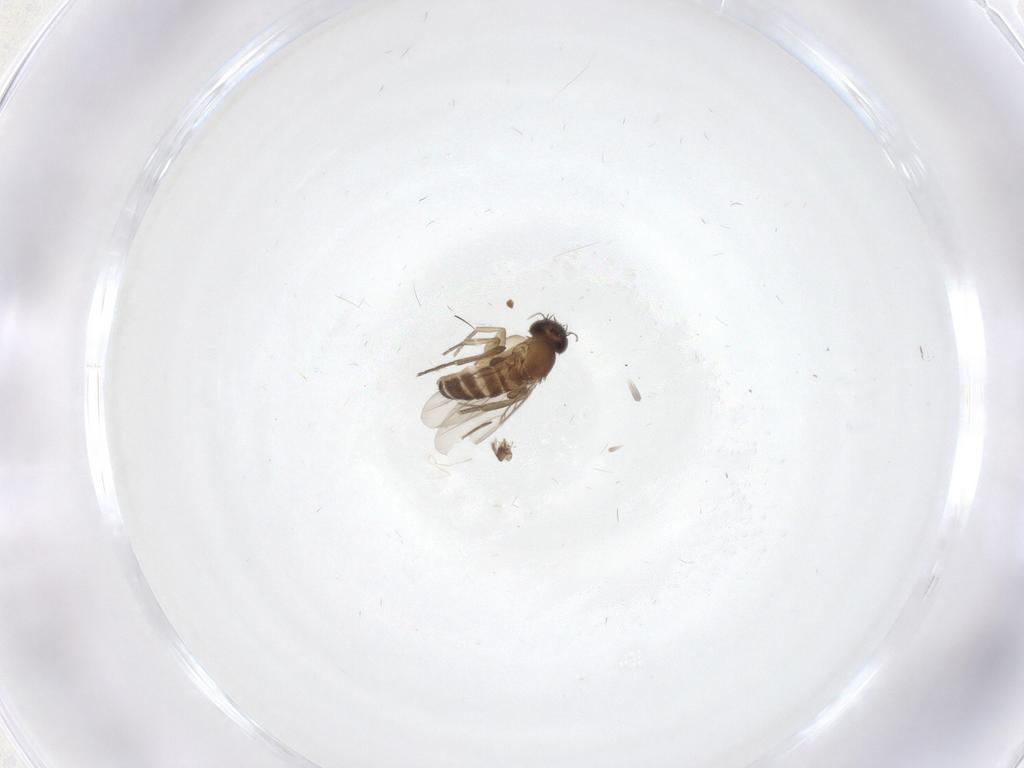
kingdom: Animalia
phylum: Arthropoda
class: Insecta
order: Diptera
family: Phoridae
